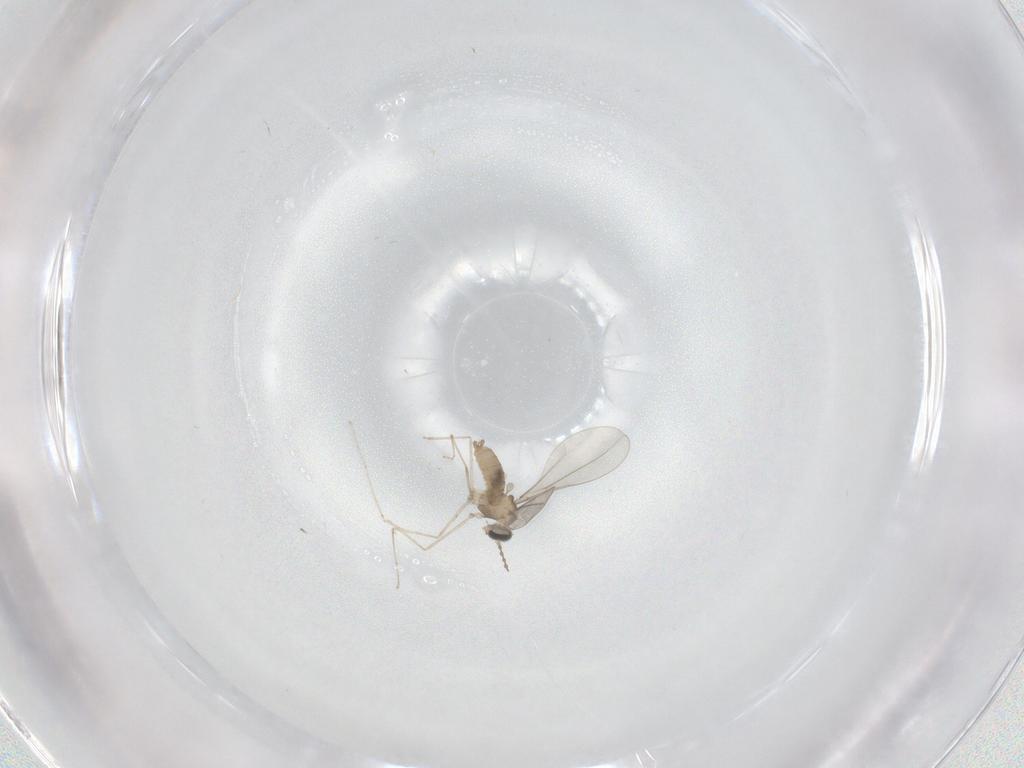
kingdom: Animalia
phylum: Arthropoda
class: Insecta
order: Diptera
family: Cecidomyiidae
